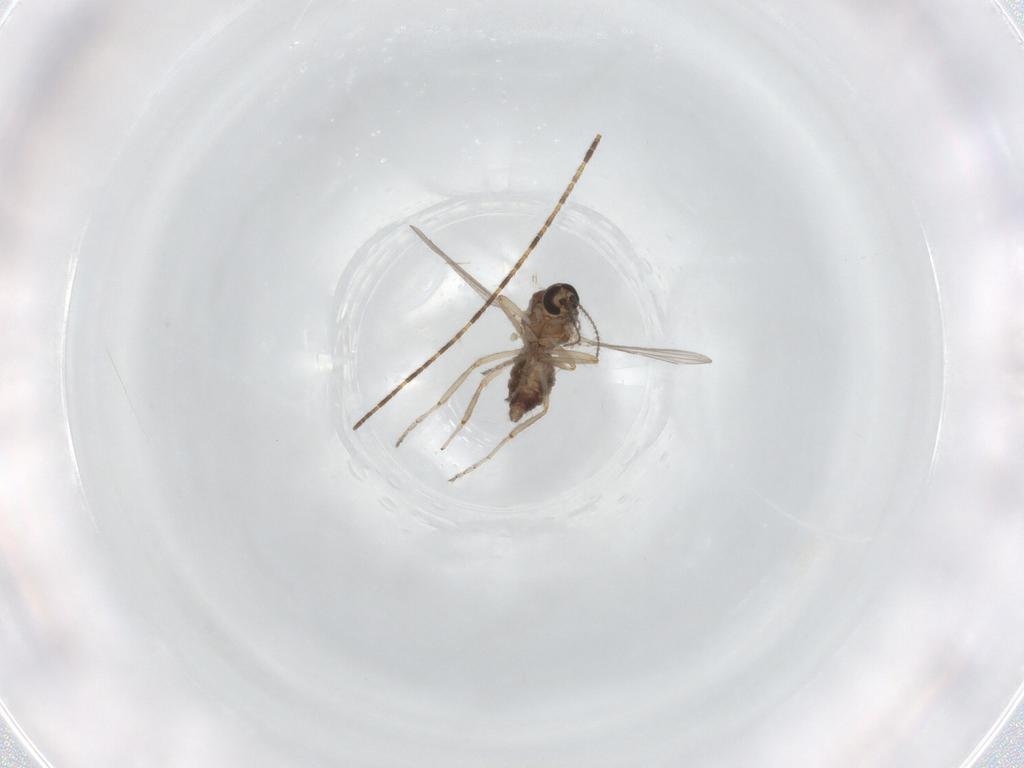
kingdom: Animalia
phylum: Arthropoda
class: Insecta
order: Diptera
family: Ceratopogonidae
